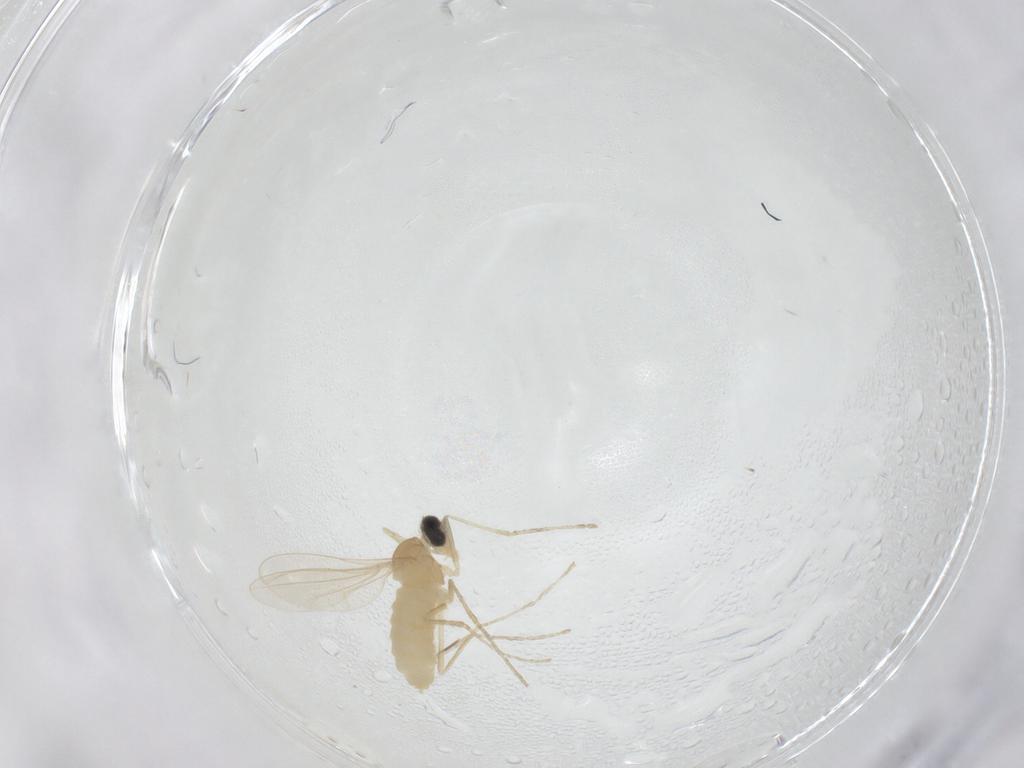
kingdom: Animalia
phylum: Arthropoda
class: Insecta
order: Diptera
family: Cecidomyiidae
